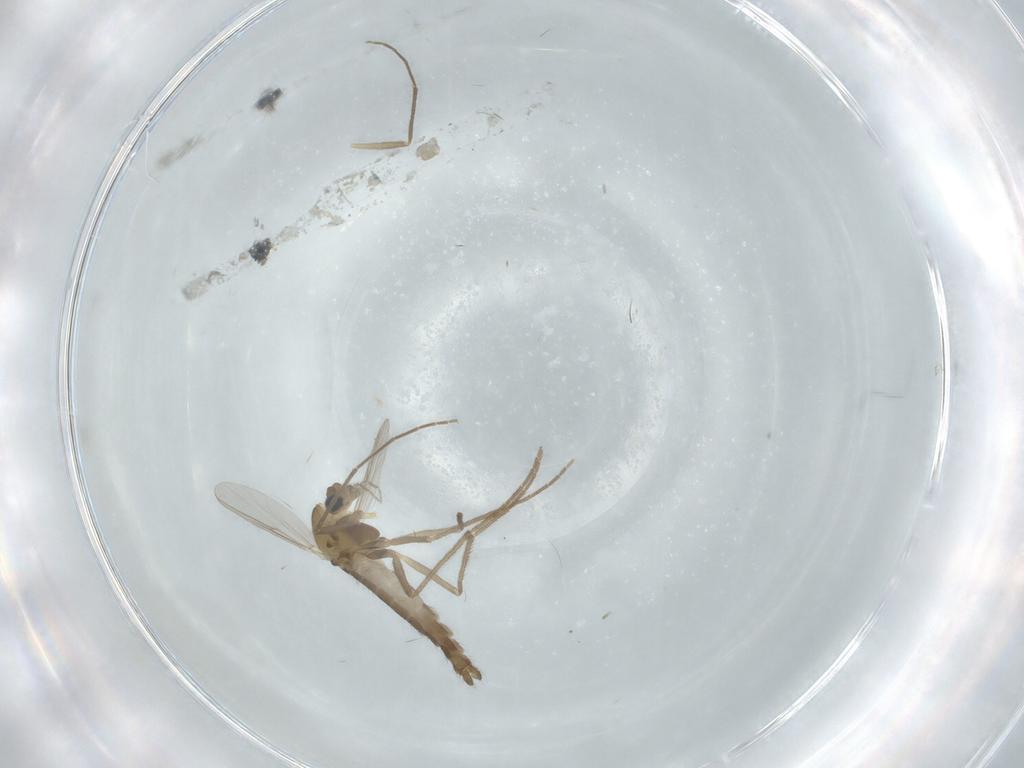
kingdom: Animalia
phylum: Arthropoda
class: Insecta
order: Diptera
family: Chironomidae
